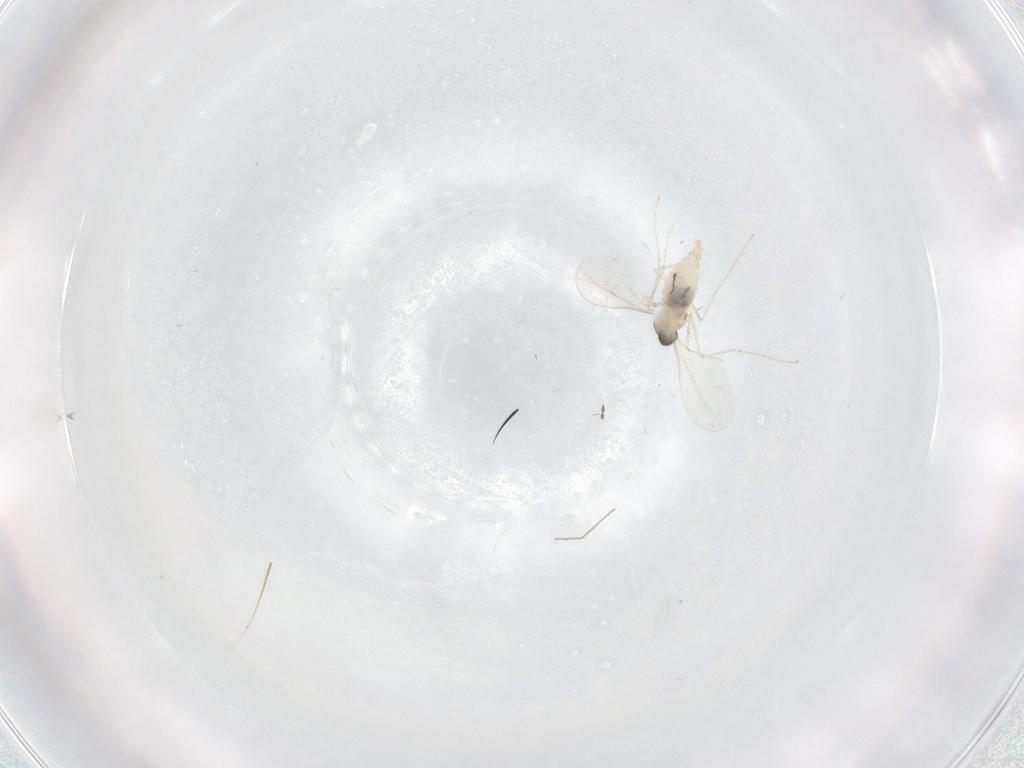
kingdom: Animalia
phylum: Arthropoda
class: Insecta
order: Diptera
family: Cecidomyiidae
